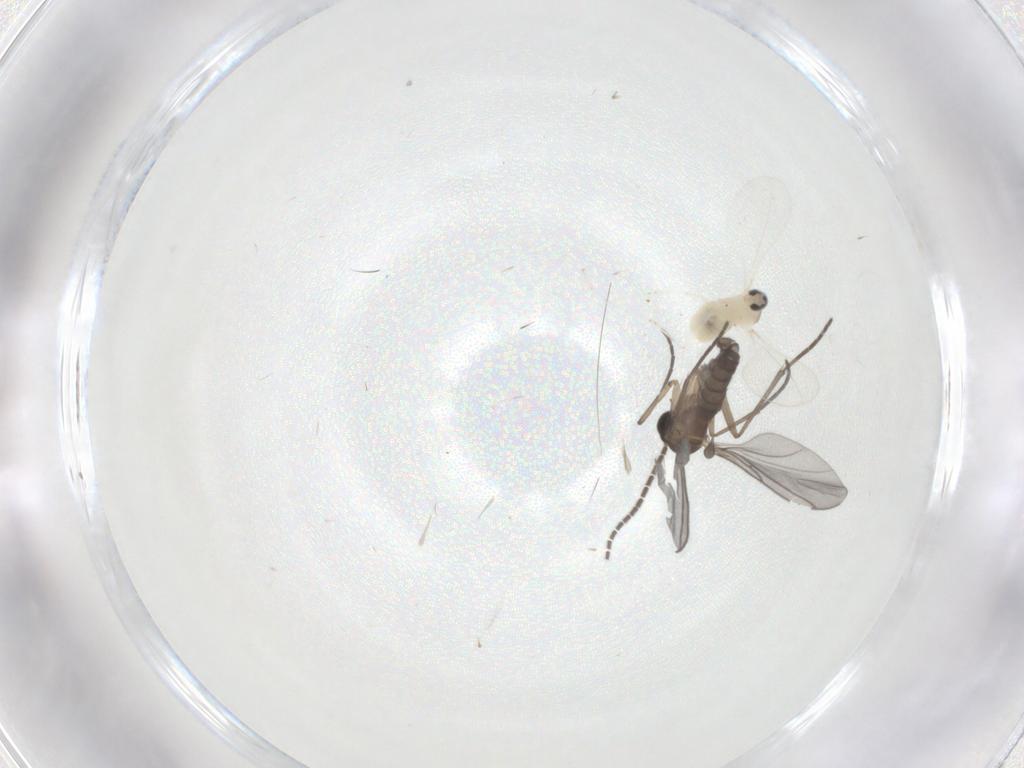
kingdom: Animalia
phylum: Arthropoda
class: Insecta
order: Diptera
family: Sciaridae
